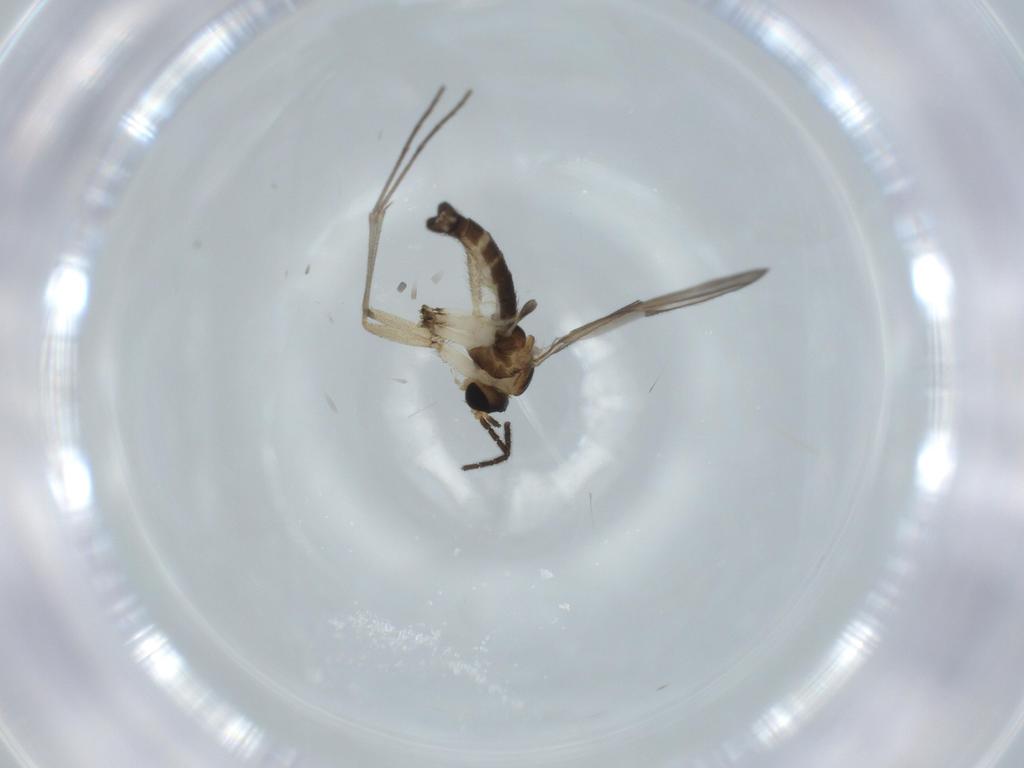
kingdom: Animalia
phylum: Arthropoda
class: Insecta
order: Diptera
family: Sciaridae
